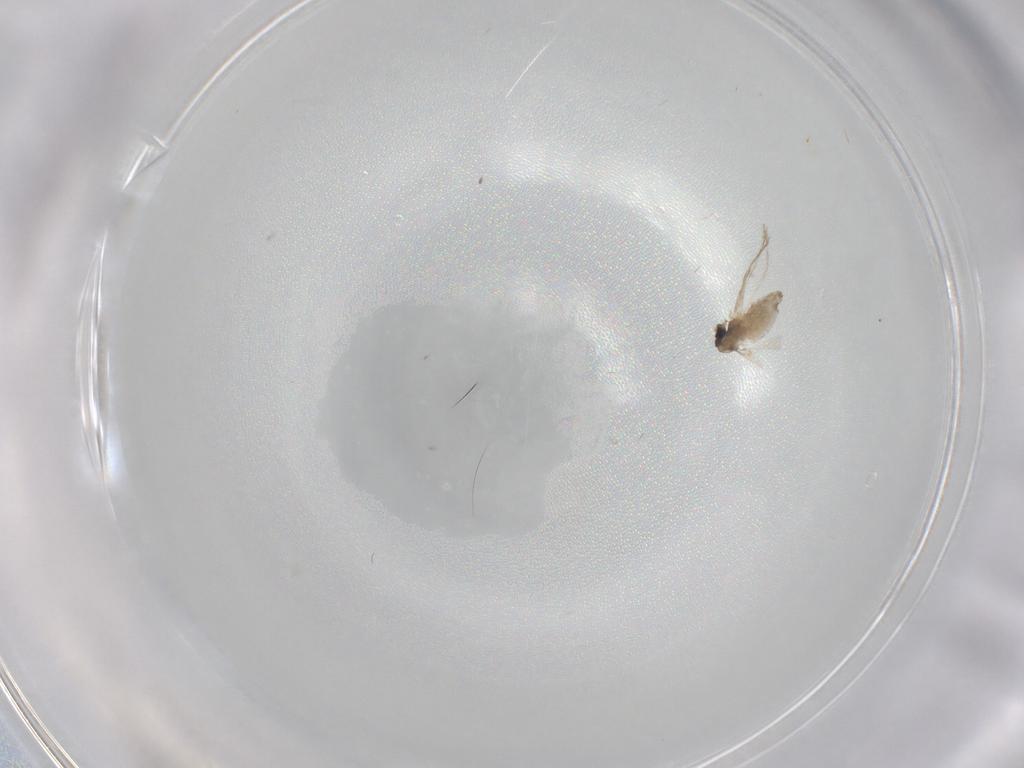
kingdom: Animalia
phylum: Arthropoda
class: Insecta
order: Diptera
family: Cecidomyiidae
